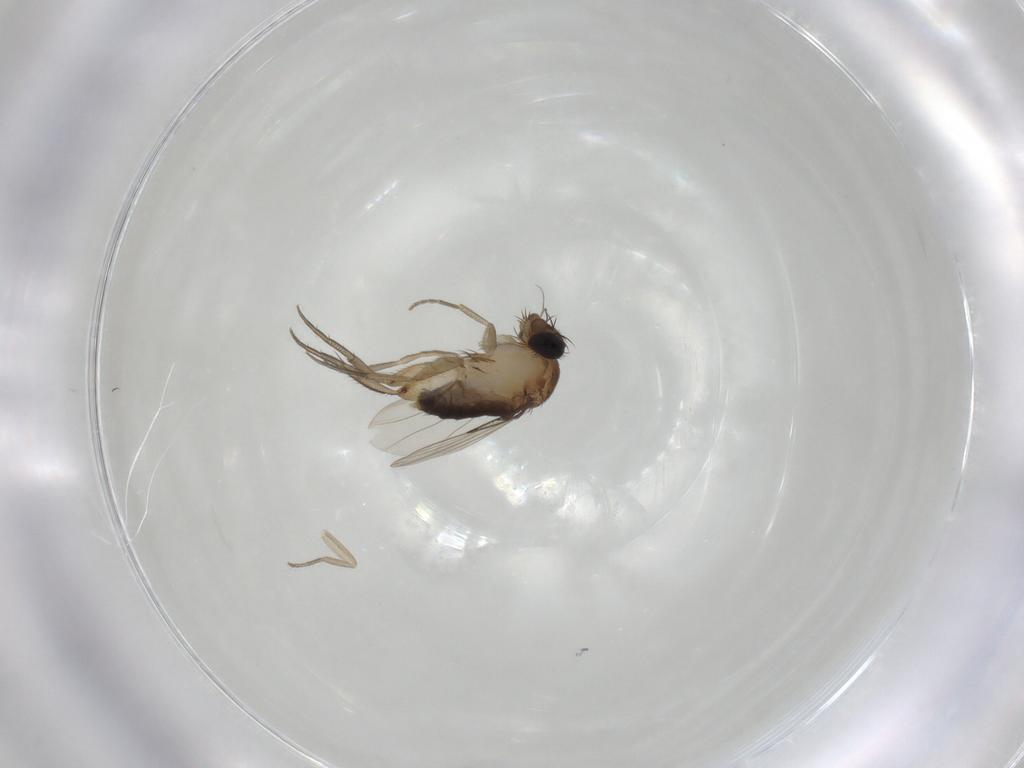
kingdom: Animalia
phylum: Arthropoda
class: Insecta
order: Diptera
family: Phoridae
